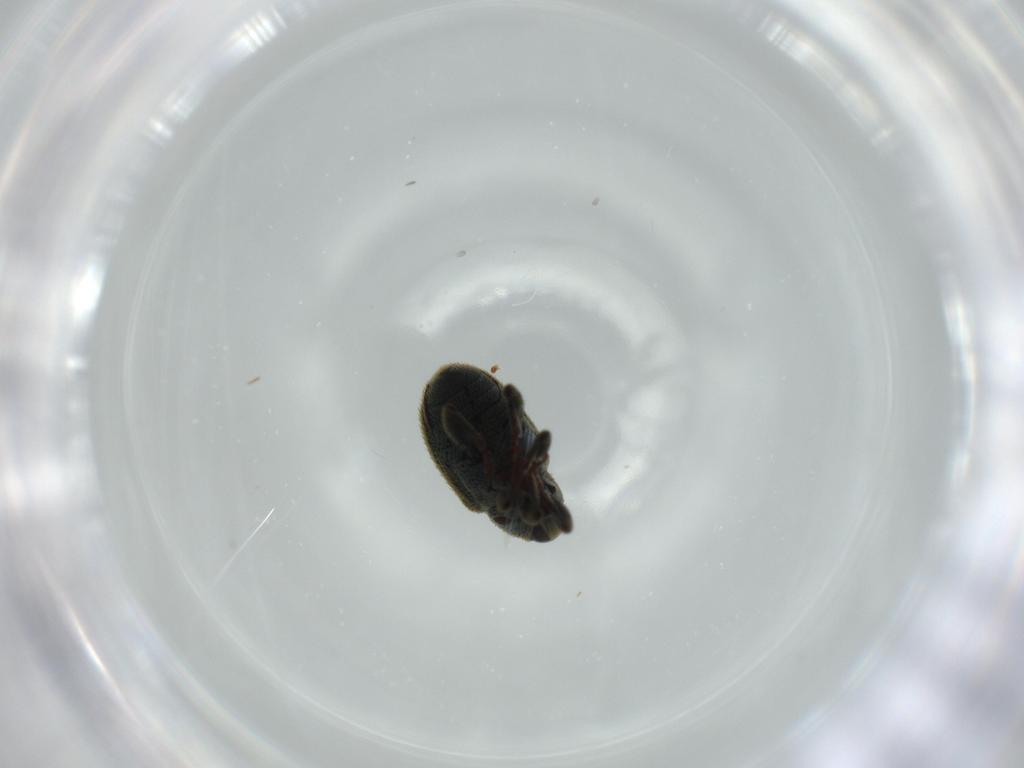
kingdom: Animalia
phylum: Arthropoda
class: Insecta
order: Coleoptera
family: Curculionidae
